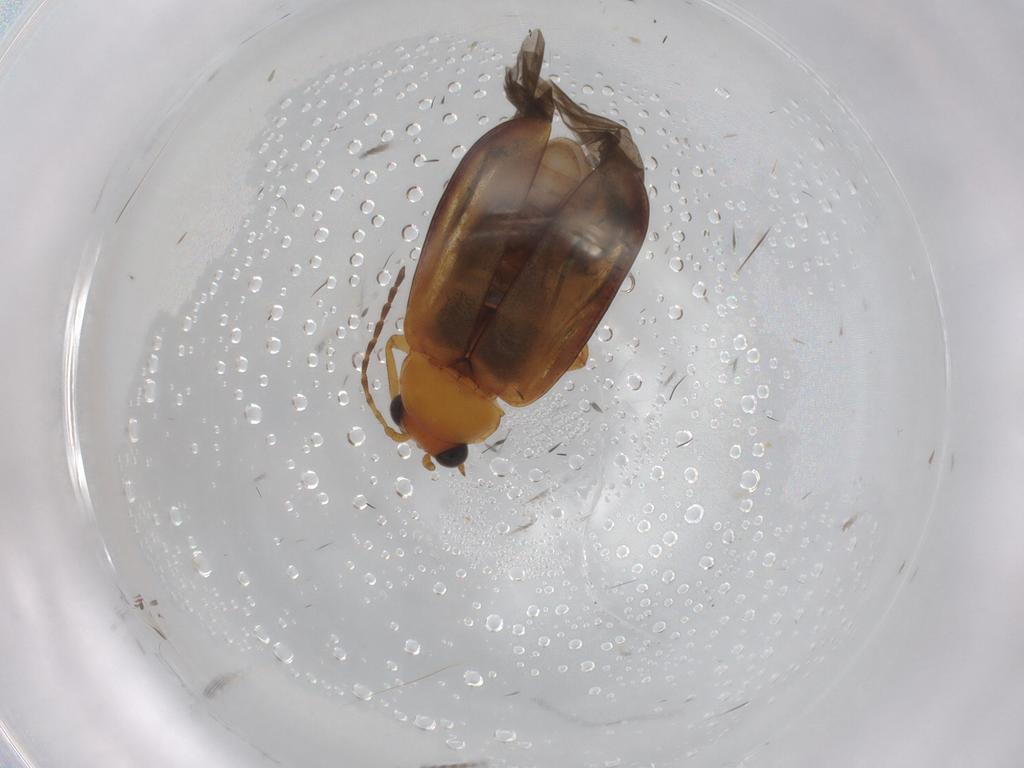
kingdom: Animalia
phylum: Arthropoda
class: Insecta
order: Coleoptera
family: Chrysomelidae
